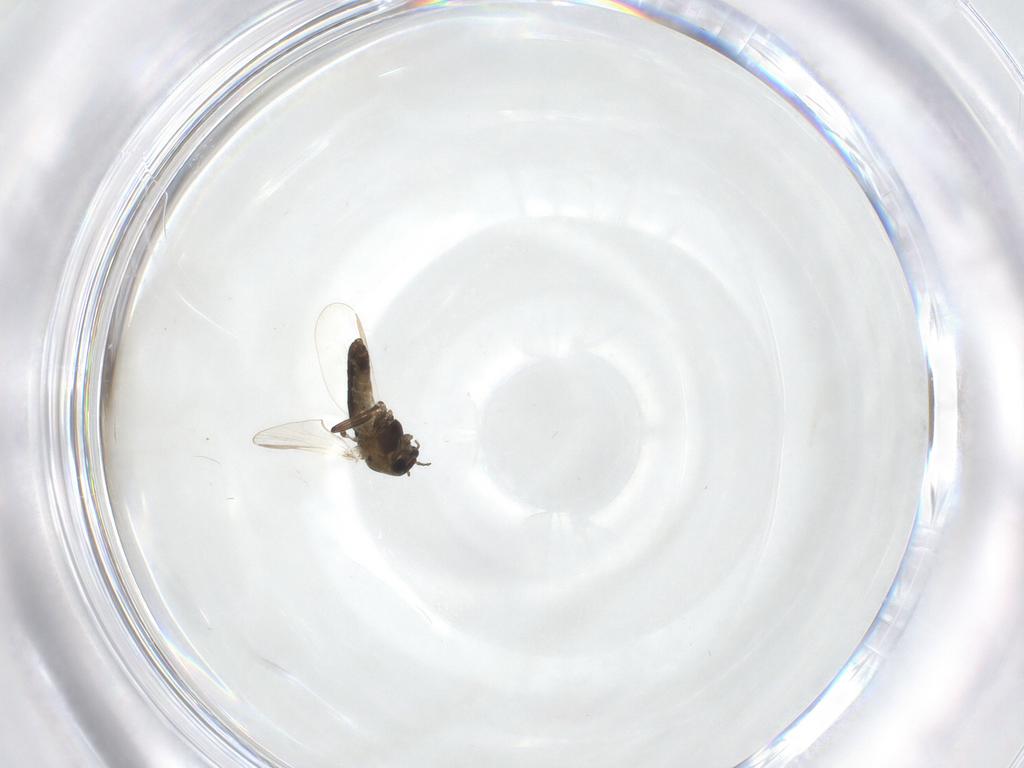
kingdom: Animalia
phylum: Arthropoda
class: Insecta
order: Diptera
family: Chironomidae
